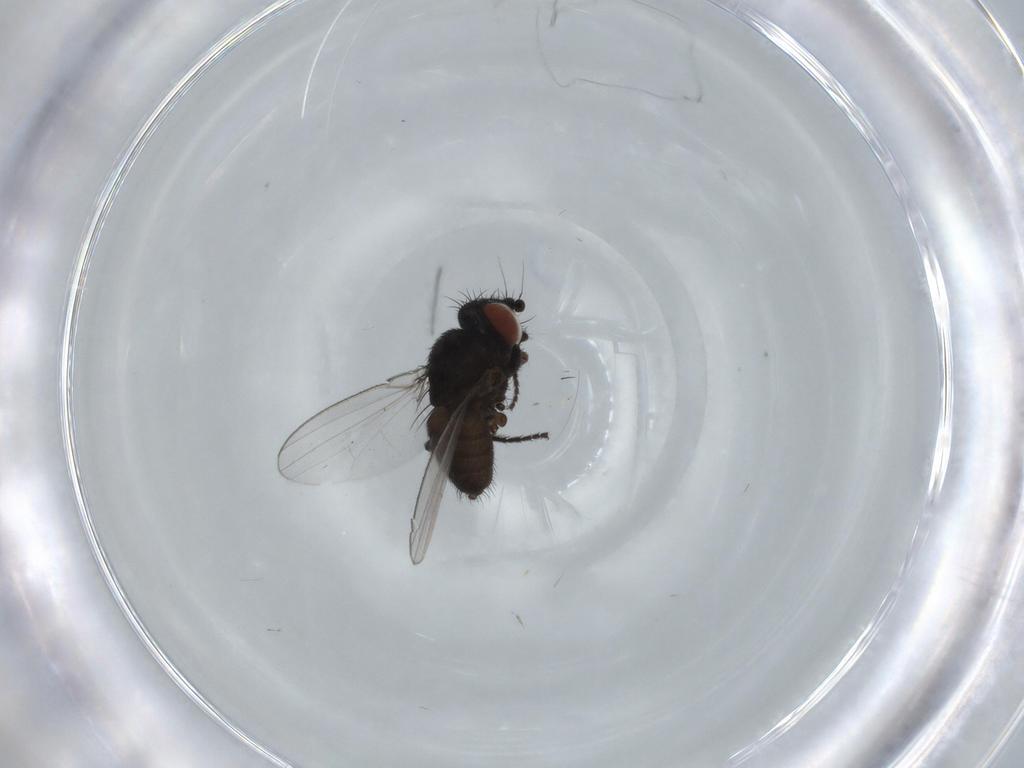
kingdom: Animalia
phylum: Arthropoda
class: Insecta
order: Diptera
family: Milichiidae
